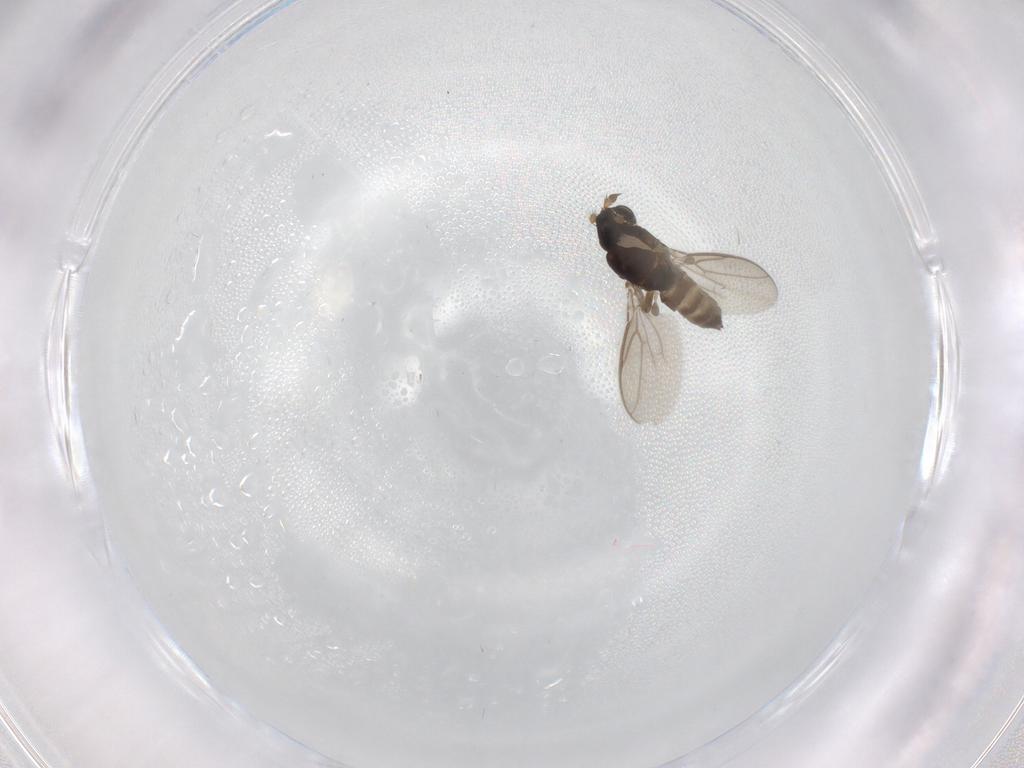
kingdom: Animalia
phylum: Arthropoda
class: Insecta
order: Diptera
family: Sphaeroceridae
